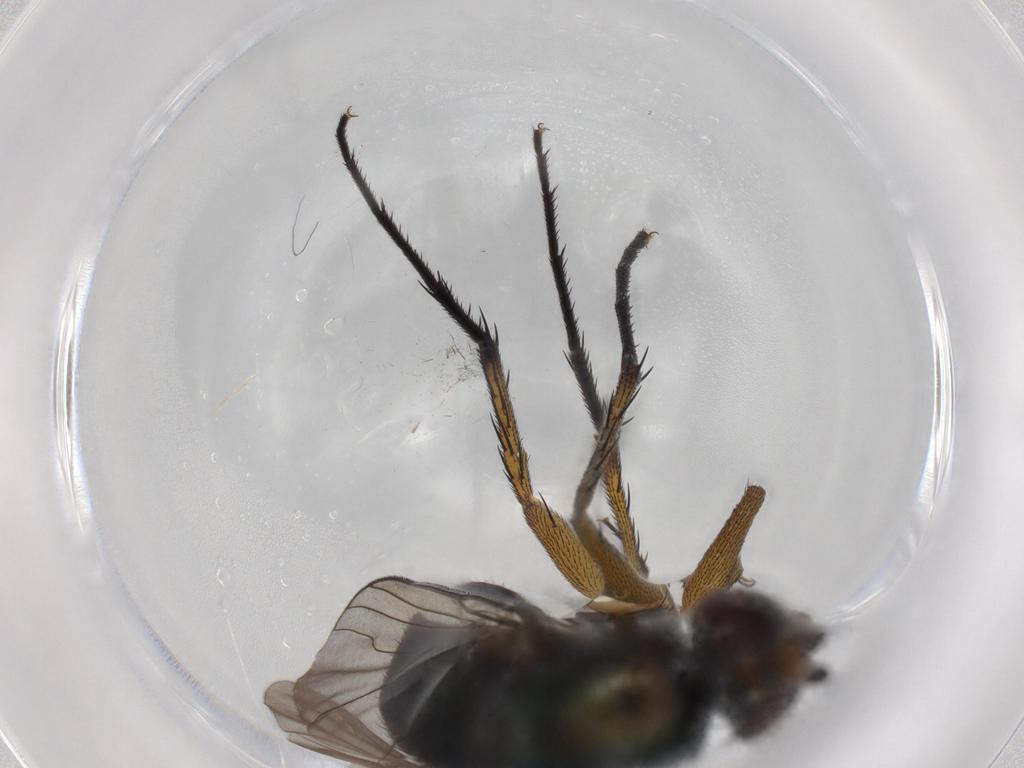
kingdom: Animalia
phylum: Arthropoda
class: Insecta
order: Diptera
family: Dolichopodidae
